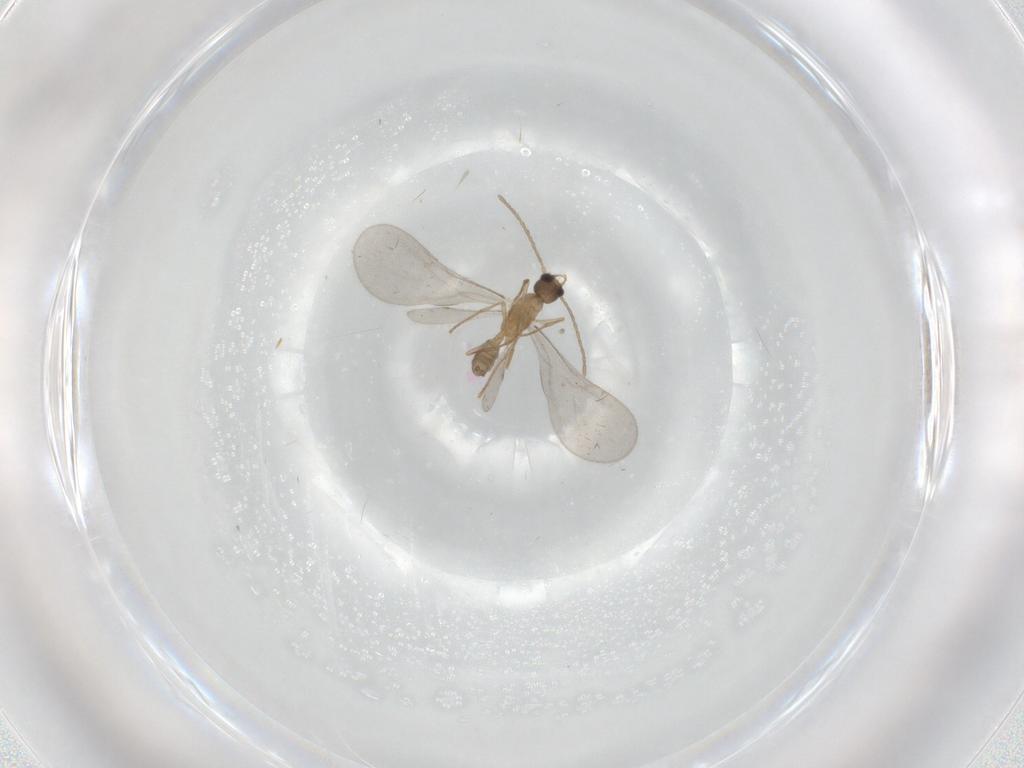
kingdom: Animalia
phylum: Arthropoda
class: Insecta
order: Hymenoptera
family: Formicidae
